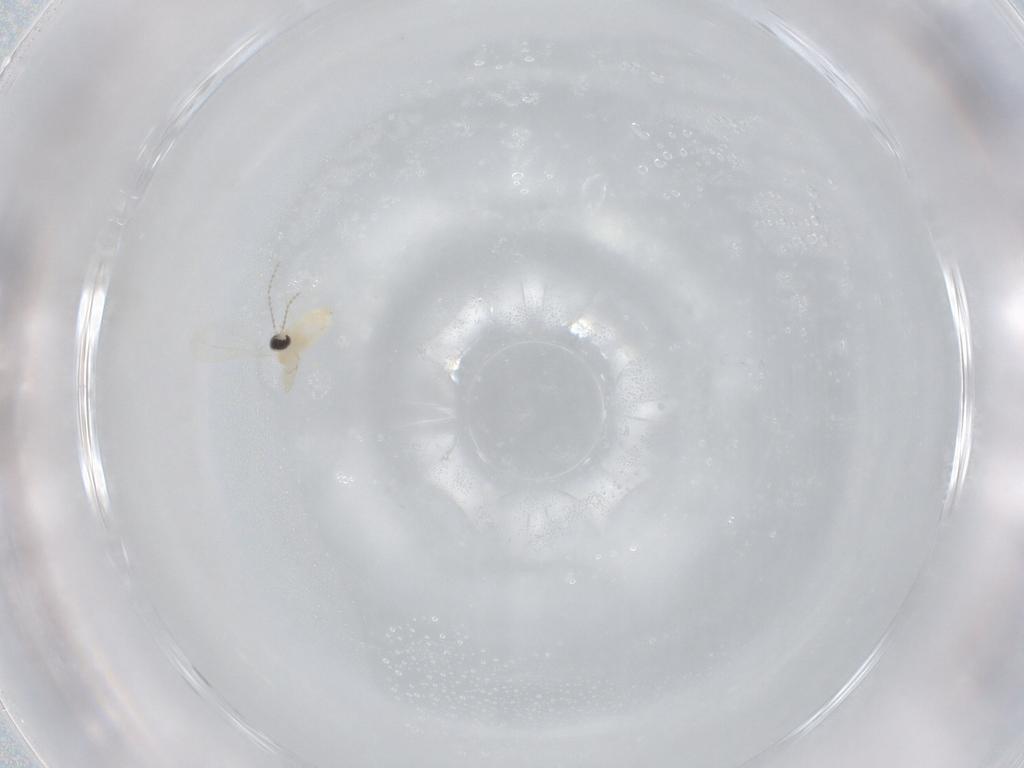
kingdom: Animalia
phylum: Arthropoda
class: Insecta
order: Diptera
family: Cecidomyiidae
